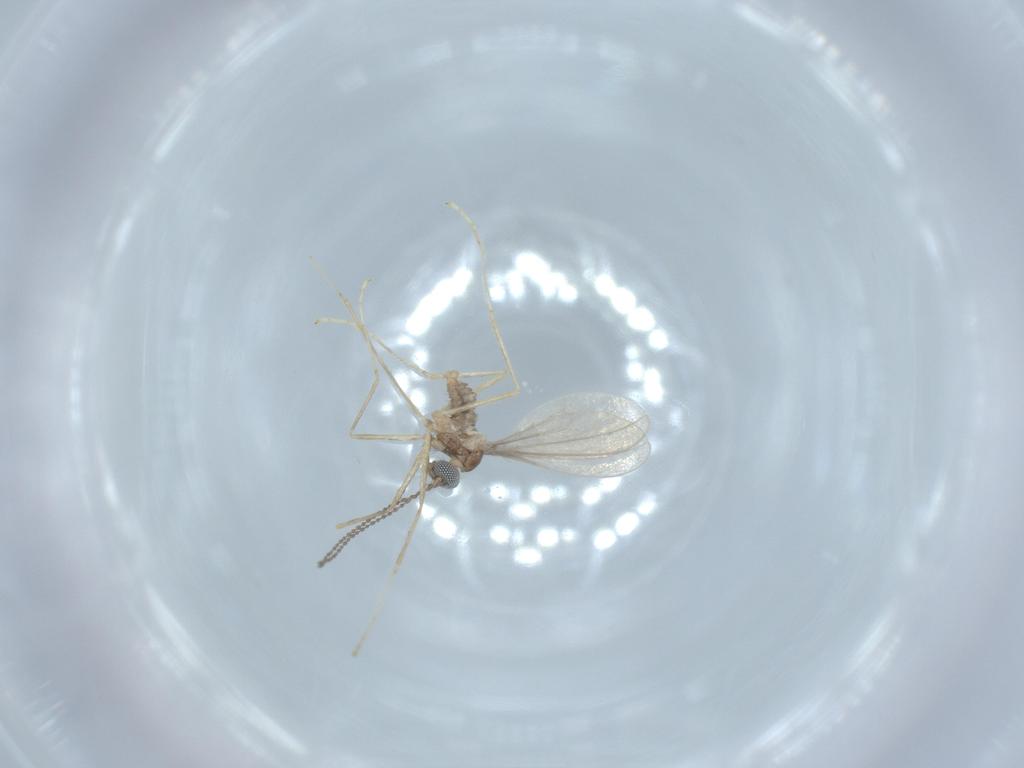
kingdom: Animalia
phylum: Arthropoda
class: Insecta
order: Diptera
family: Cecidomyiidae
